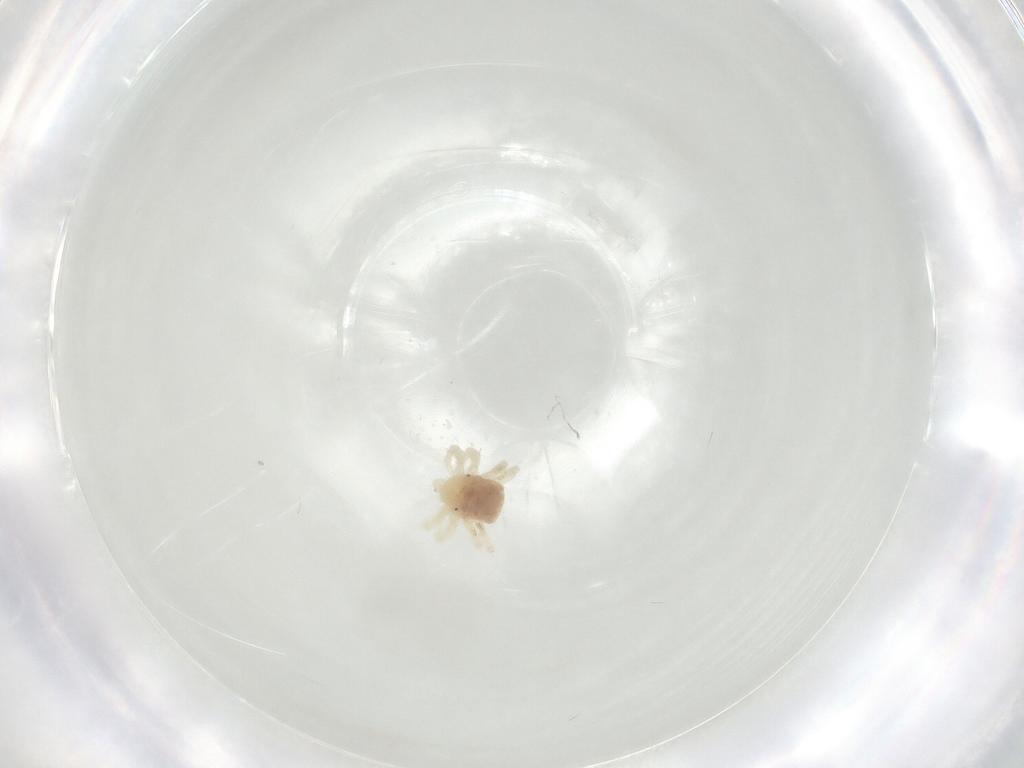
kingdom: Animalia
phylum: Arthropoda
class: Arachnida
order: Trombidiformes
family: Anystidae
